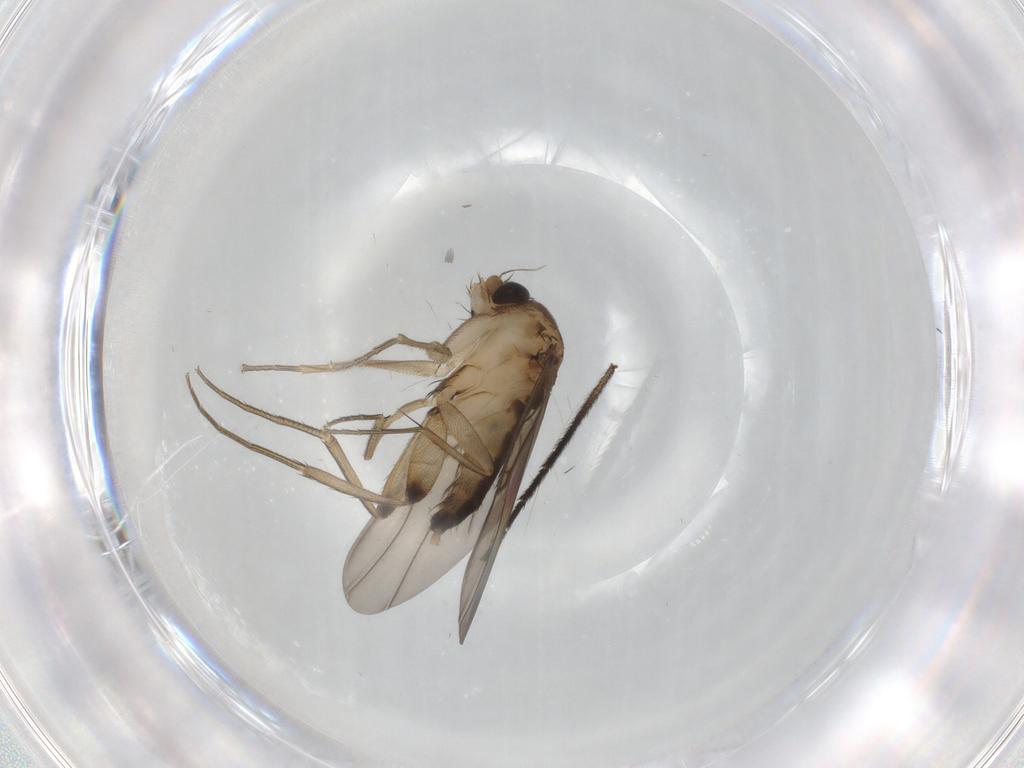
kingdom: Animalia
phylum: Arthropoda
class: Insecta
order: Diptera
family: Phoridae
